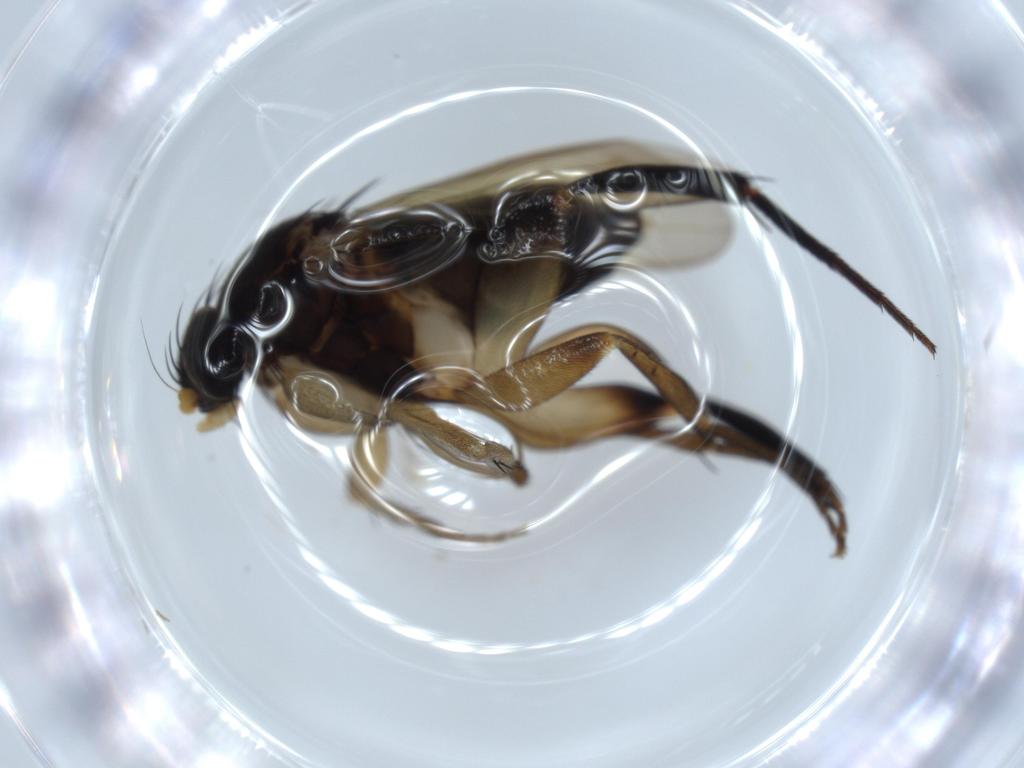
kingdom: Animalia
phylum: Arthropoda
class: Insecta
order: Diptera
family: Phoridae
